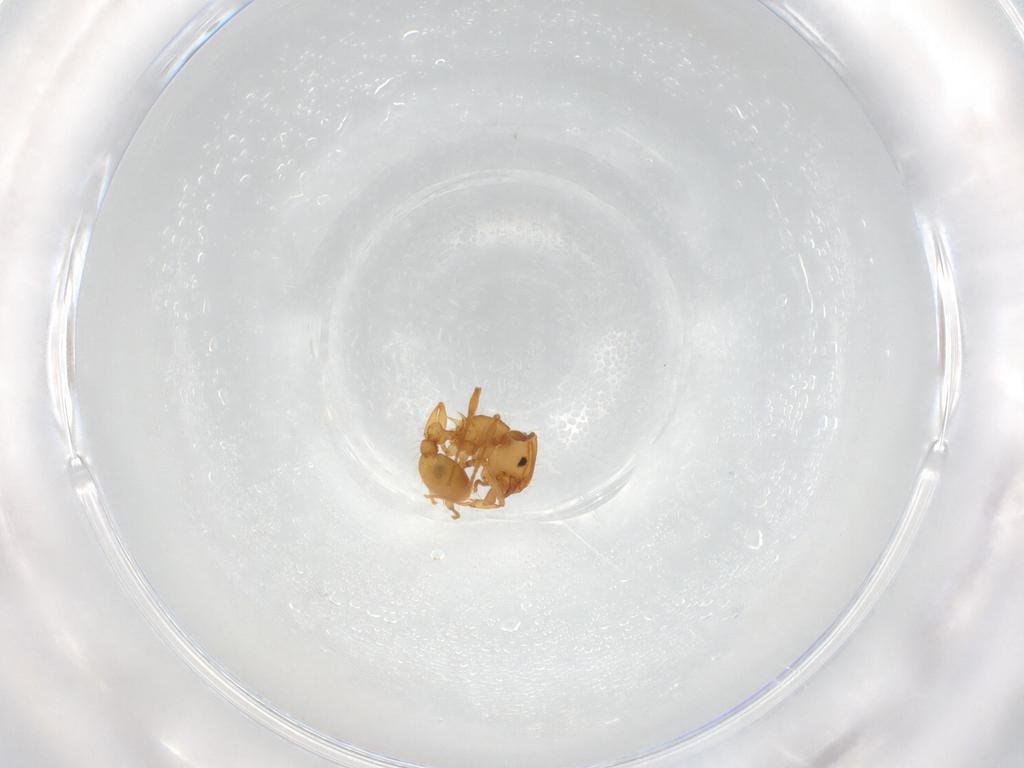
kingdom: Animalia
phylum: Arthropoda
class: Insecta
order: Hymenoptera
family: Formicidae
